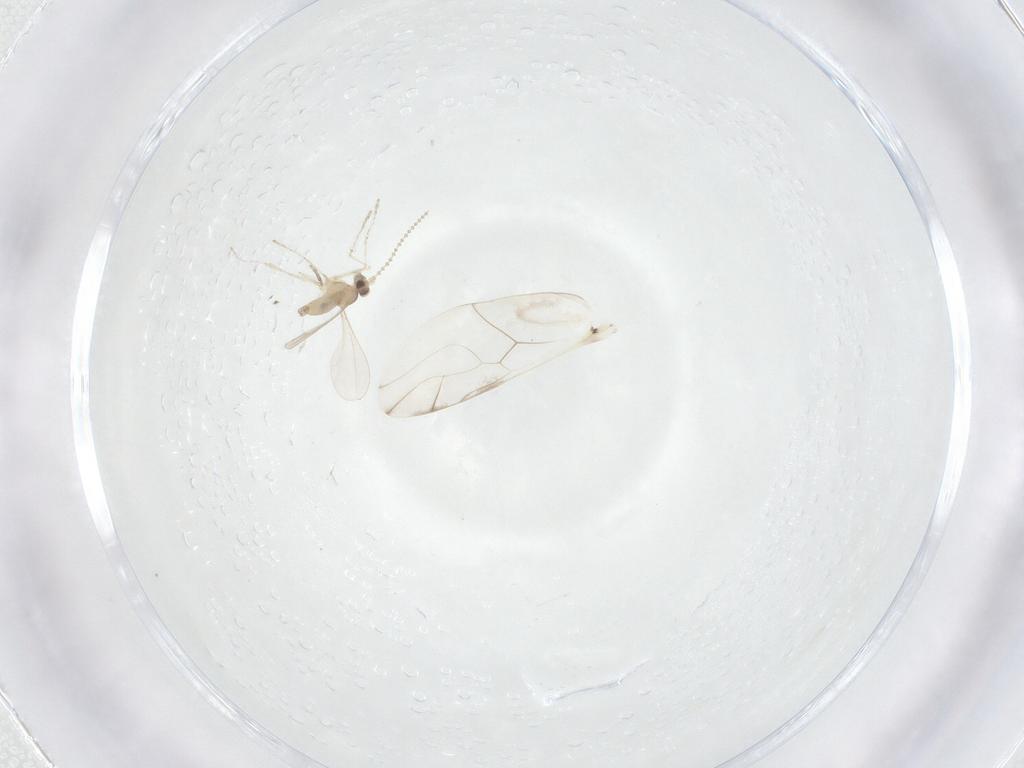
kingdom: Animalia
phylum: Arthropoda
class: Insecta
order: Diptera
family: Cecidomyiidae
